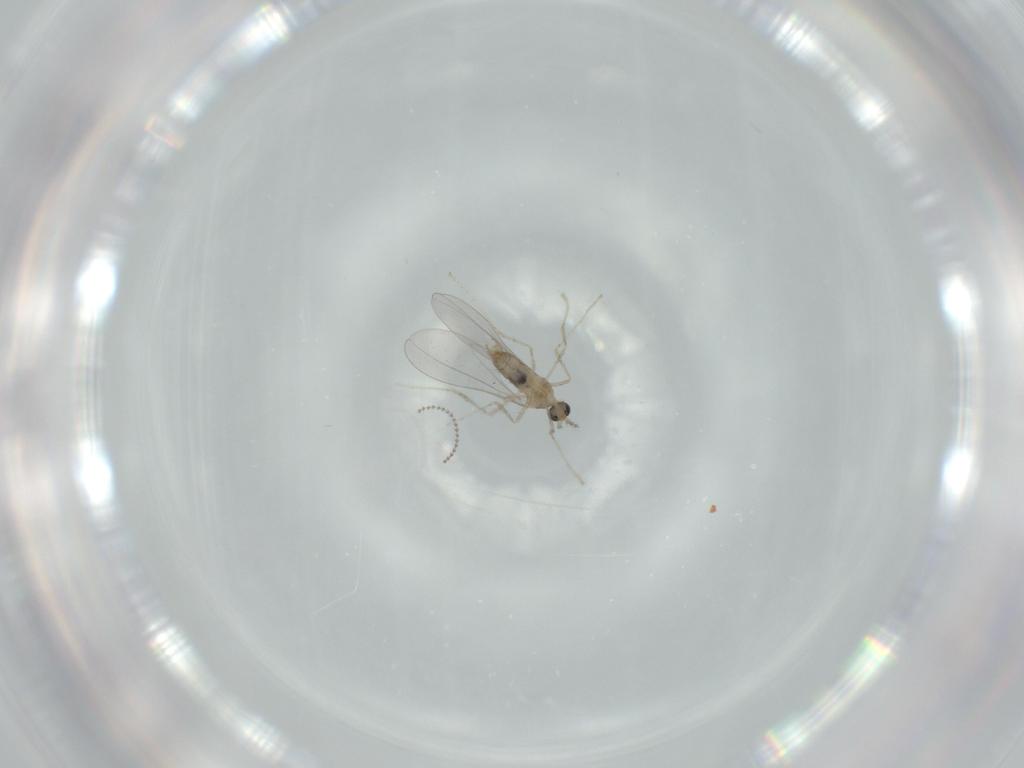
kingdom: Animalia
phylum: Arthropoda
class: Insecta
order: Diptera
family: Cecidomyiidae
